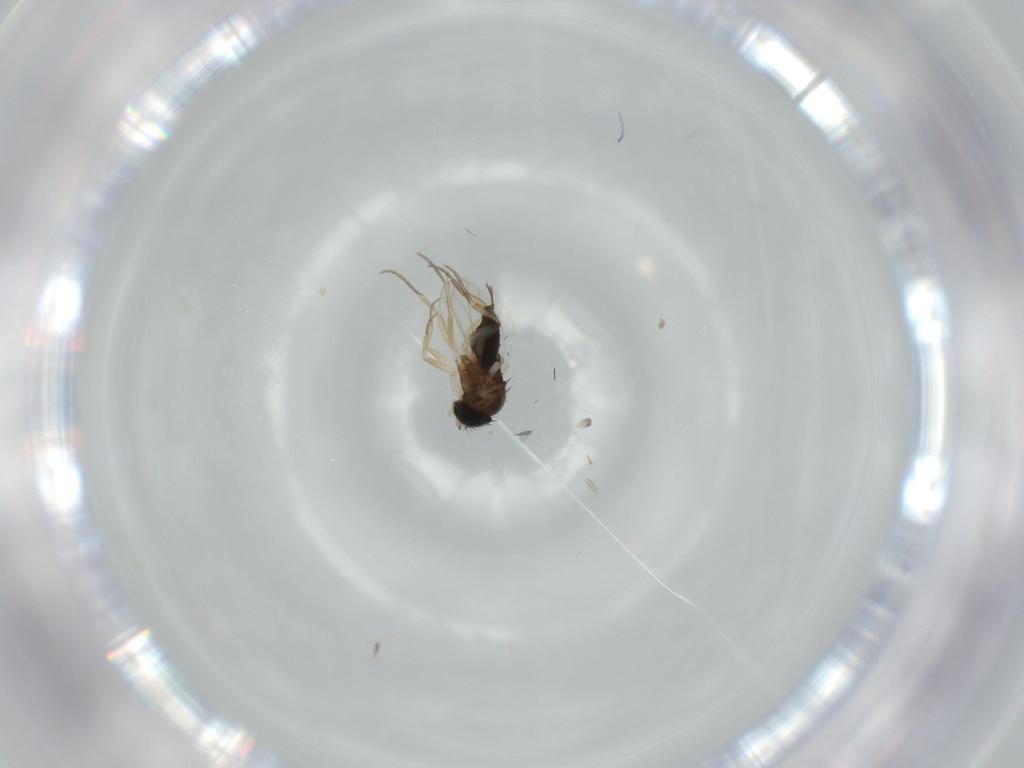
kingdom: Animalia
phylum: Arthropoda
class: Insecta
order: Diptera
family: Phoridae
